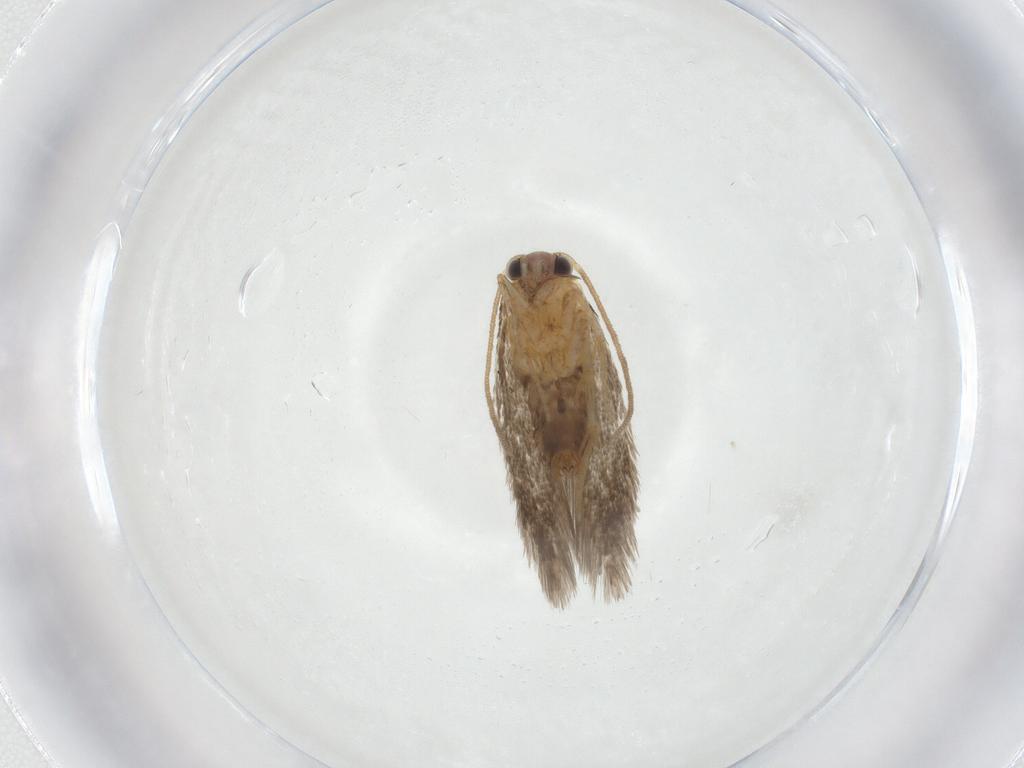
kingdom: Animalia
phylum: Arthropoda
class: Insecta
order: Lepidoptera
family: Nepticulidae
